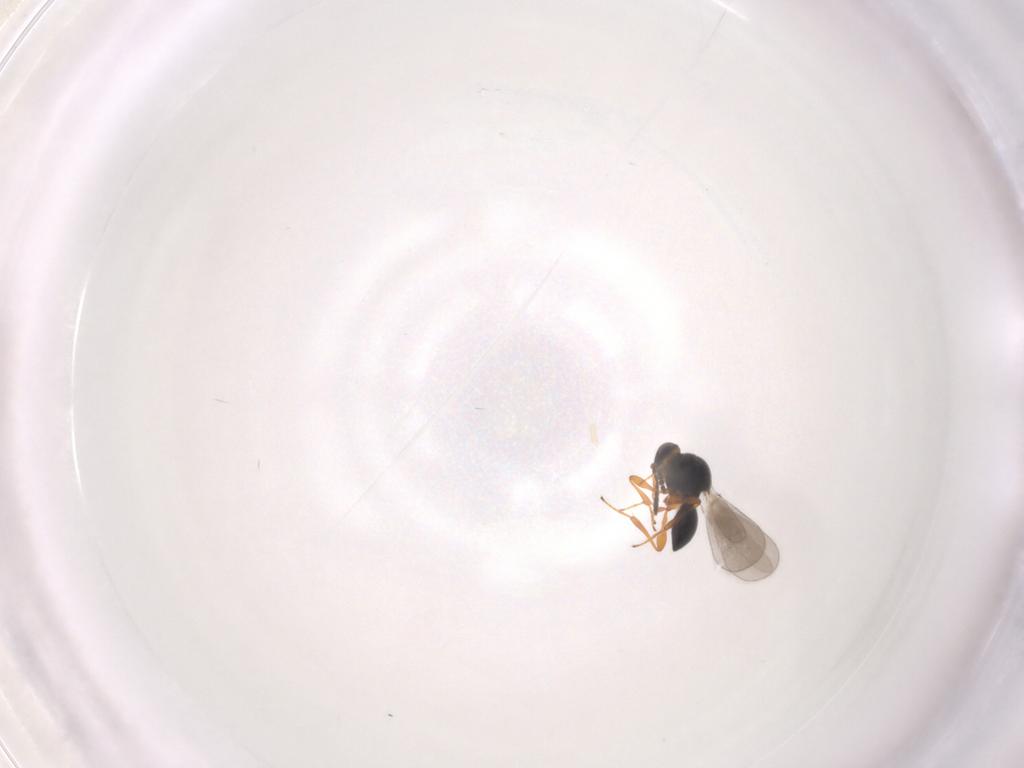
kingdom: Animalia
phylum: Arthropoda
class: Insecta
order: Hymenoptera
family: Platygastridae
